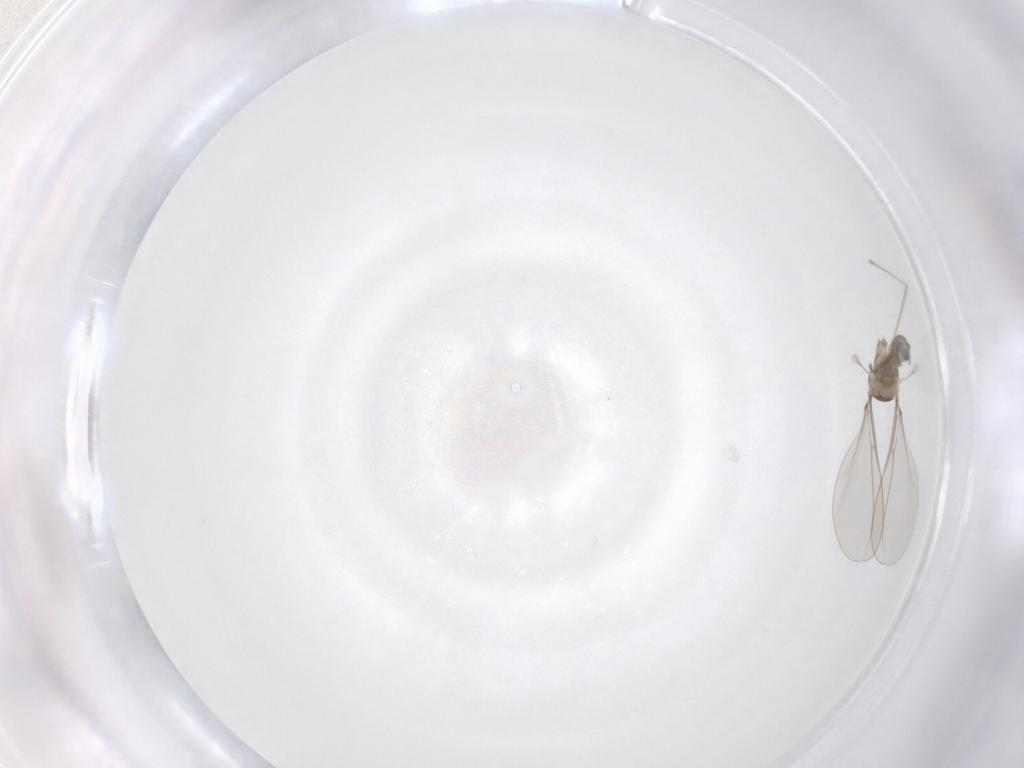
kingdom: Animalia
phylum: Arthropoda
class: Insecta
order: Diptera
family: Chironomidae
